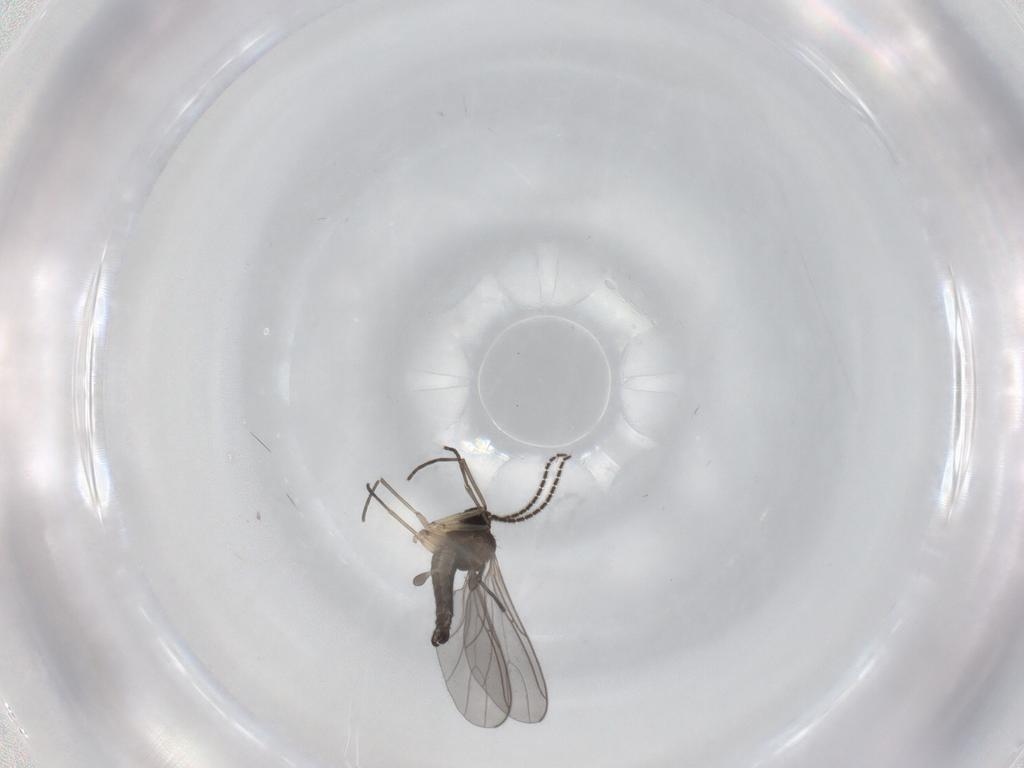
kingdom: Animalia
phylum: Arthropoda
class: Insecta
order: Diptera
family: Sciaridae
